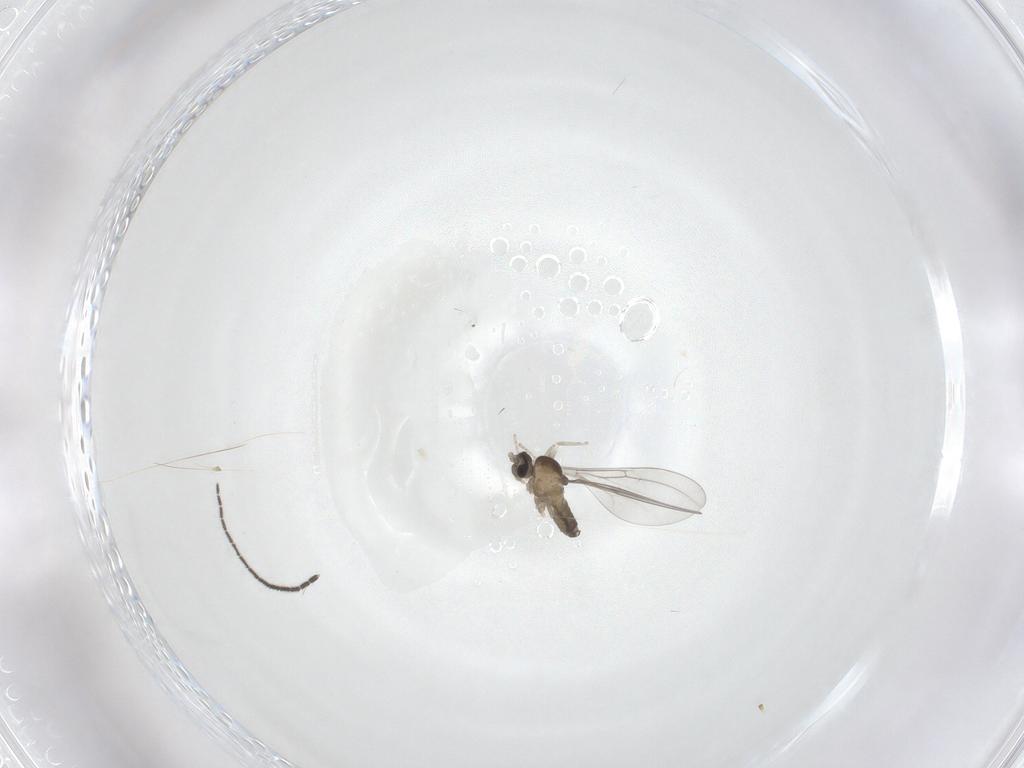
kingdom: Animalia
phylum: Arthropoda
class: Insecta
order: Diptera
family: Cecidomyiidae
